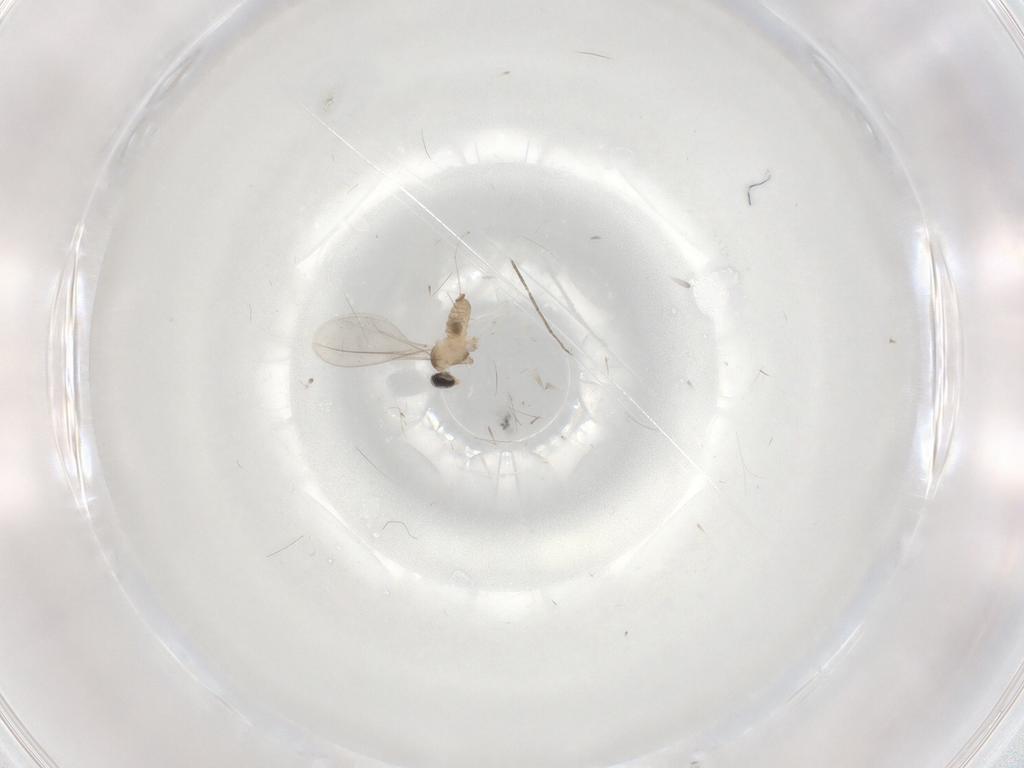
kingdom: Animalia
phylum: Arthropoda
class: Insecta
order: Diptera
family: Cecidomyiidae
